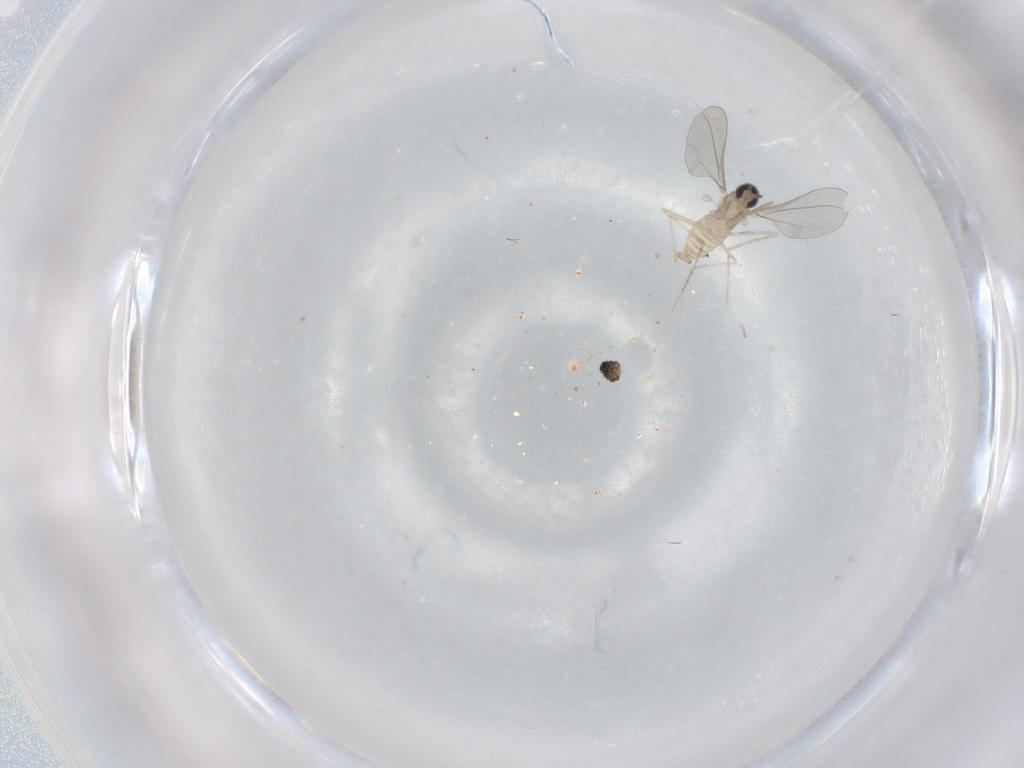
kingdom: Animalia
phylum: Arthropoda
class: Insecta
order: Diptera
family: Cecidomyiidae
